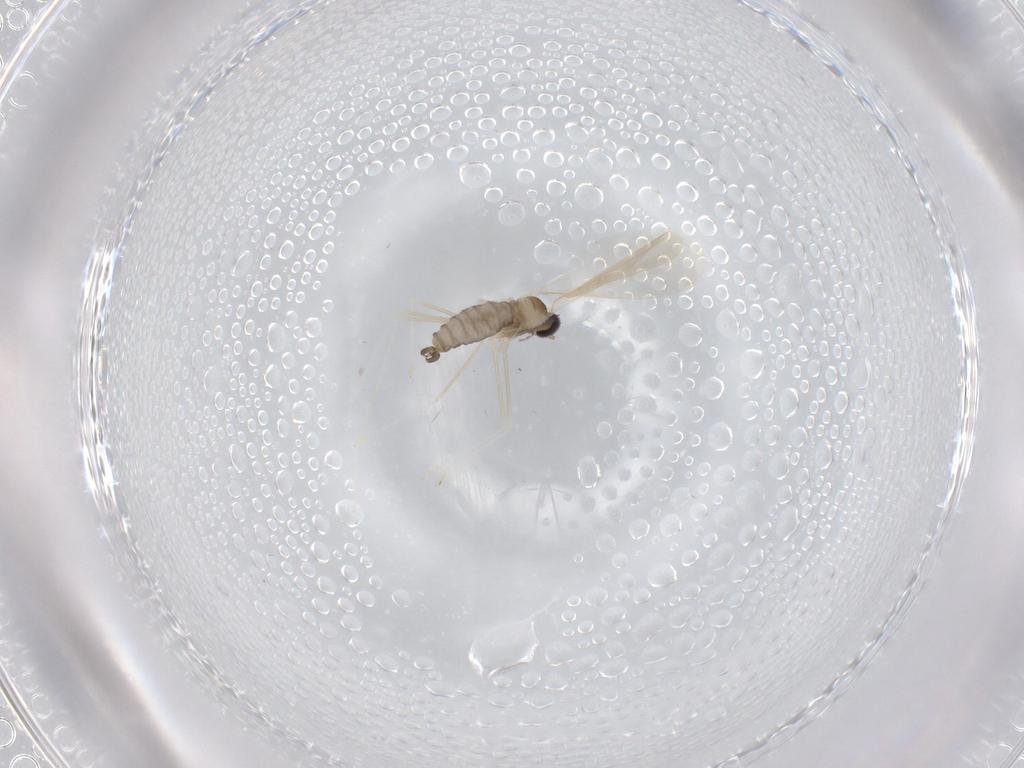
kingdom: Animalia
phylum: Arthropoda
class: Insecta
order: Diptera
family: Cecidomyiidae
